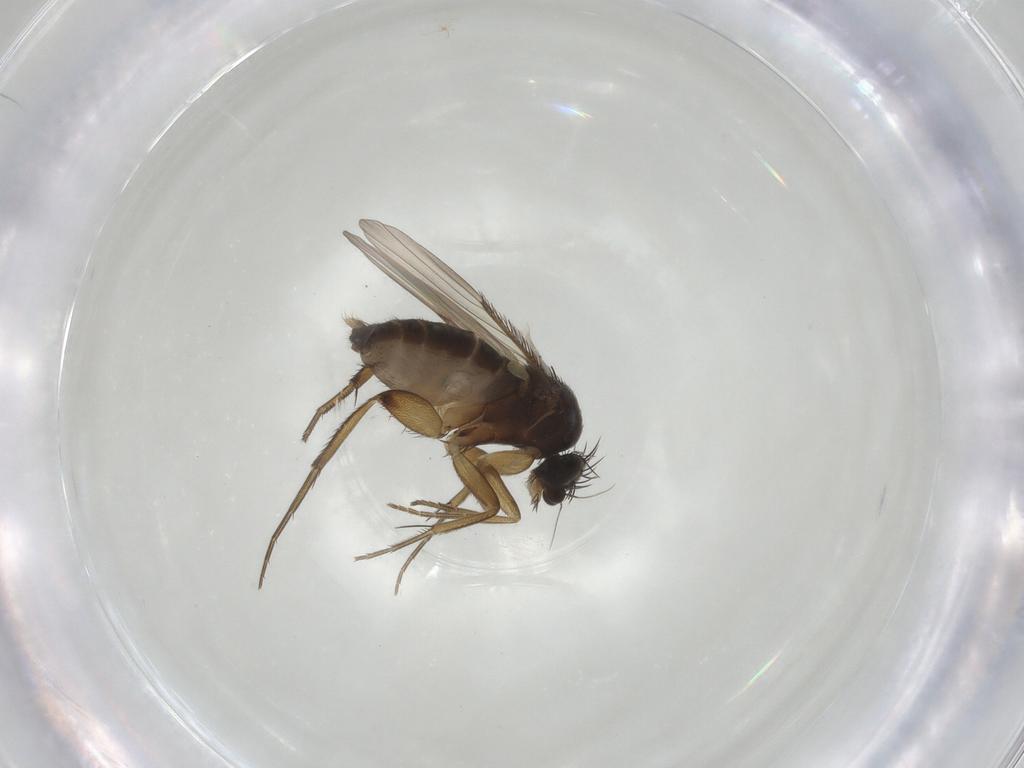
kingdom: Animalia
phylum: Arthropoda
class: Insecta
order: Diptera
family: Phoridae
